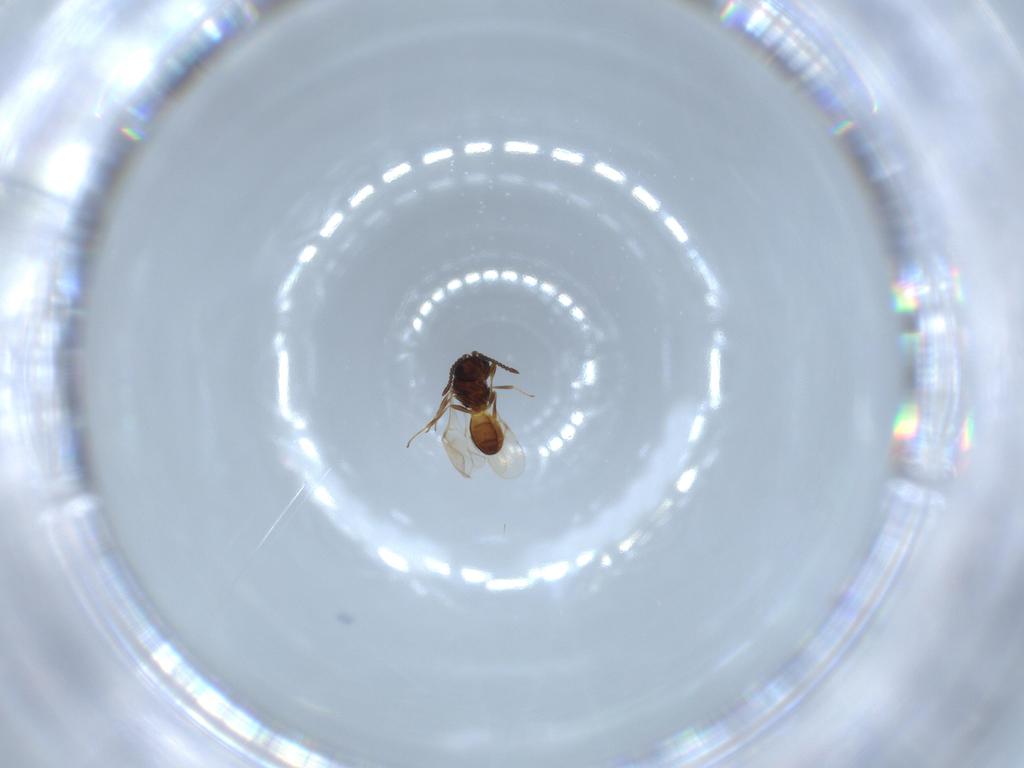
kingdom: Animalia
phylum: Arthropoda
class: Insecta
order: Hymenoptera
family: Scelionidae
